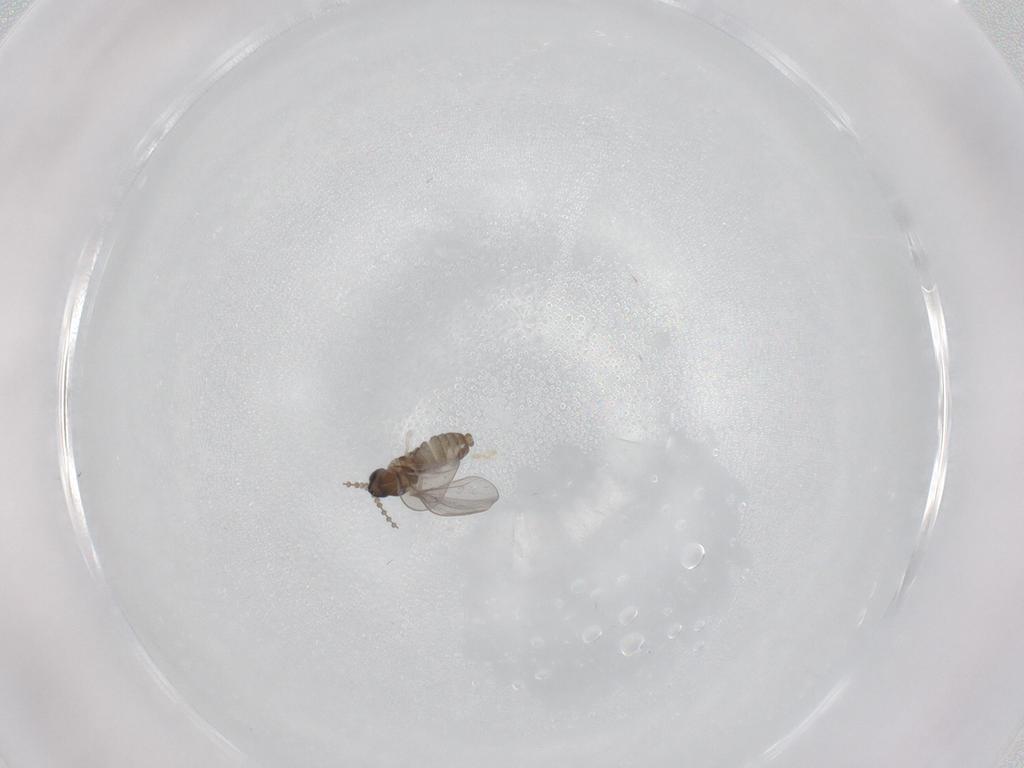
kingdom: Animalia
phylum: Arthropoda
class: Insecta
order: Diptera
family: Cecidomyiidae
